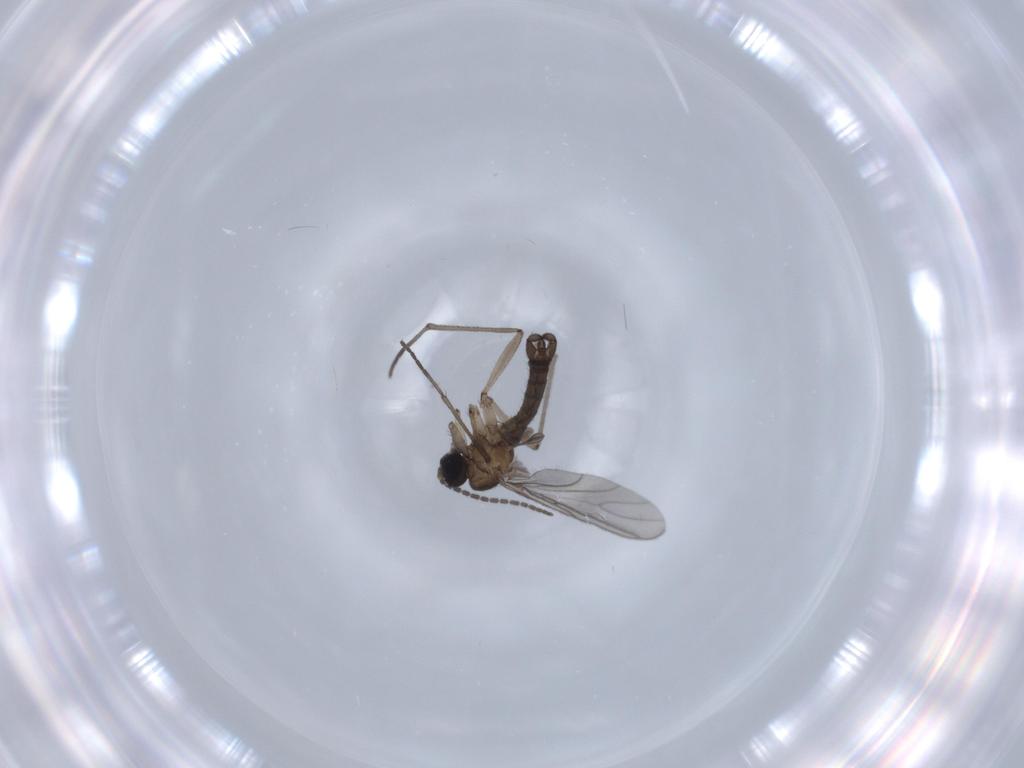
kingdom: Animalia
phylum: Arthropoda
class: Insecta
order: Diptera
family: Sciaridae
